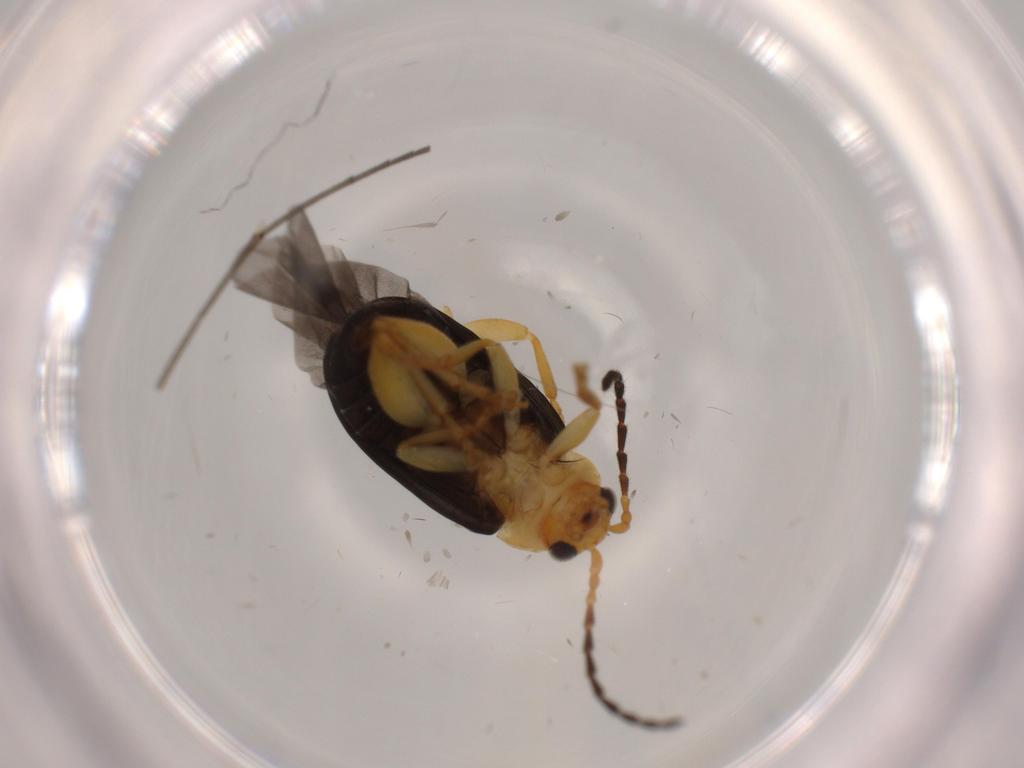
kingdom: Animalia
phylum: Arthropoda
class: Insecta
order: Coleoptera
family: Chrysomelidae
